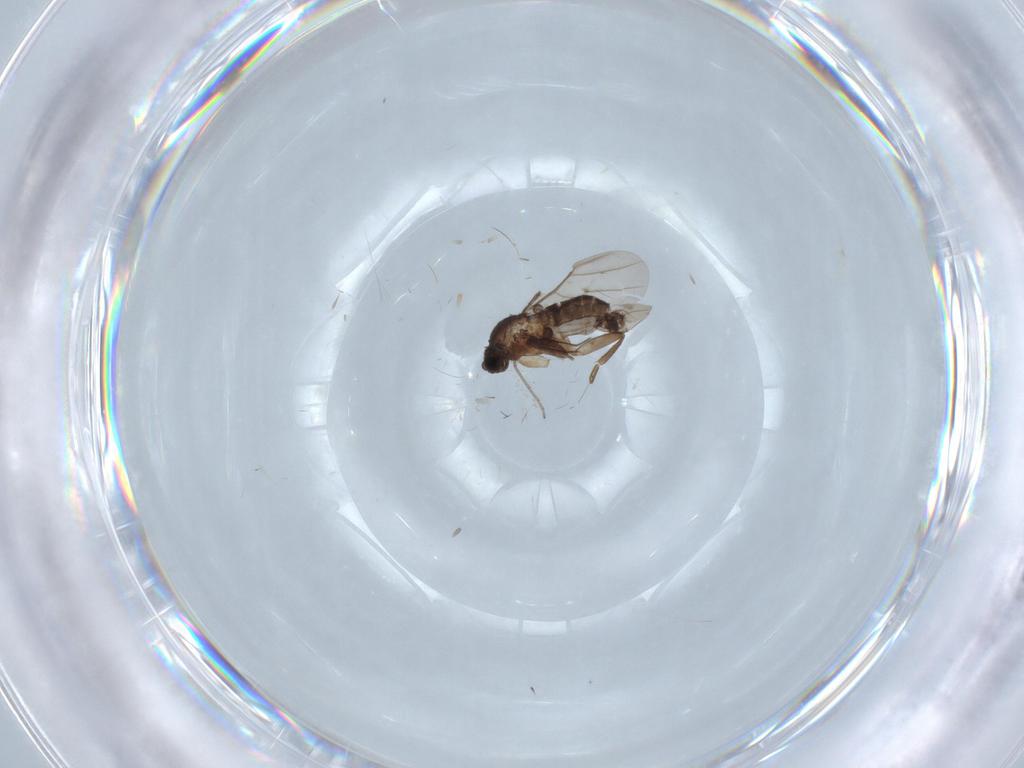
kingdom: Animalia
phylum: Arthropoda
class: Insecta
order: Diptera
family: Chironomidae
